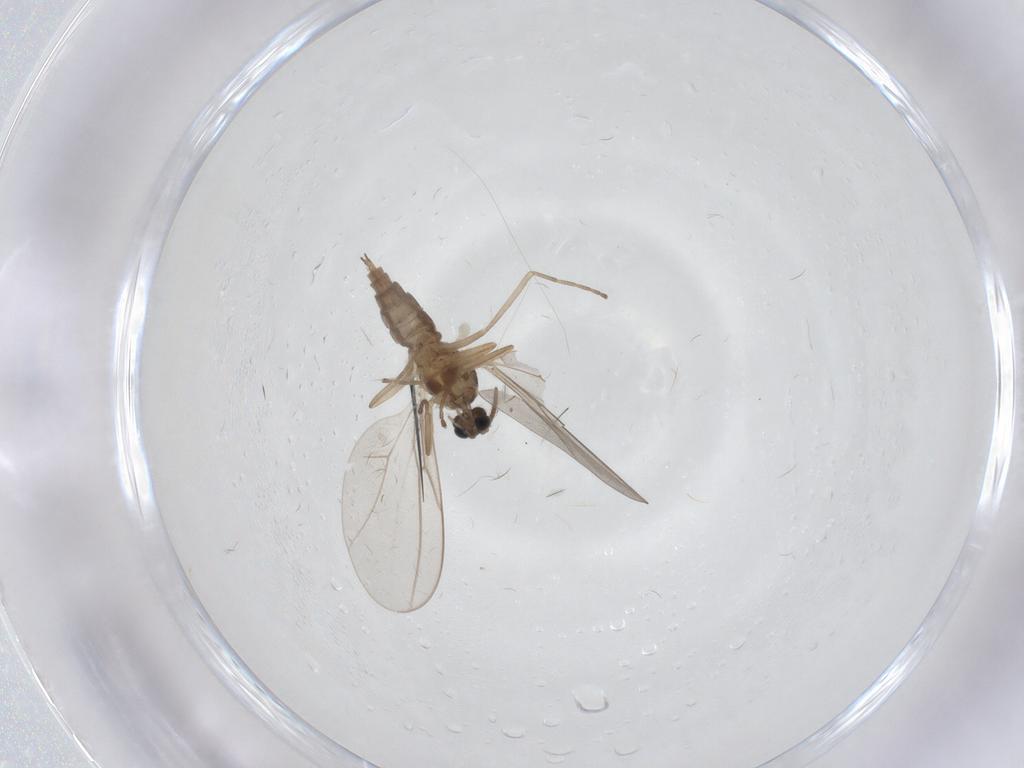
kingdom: Animalia
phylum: Arthropoda
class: Insecta
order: Diptera
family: Cecidomyiidae
